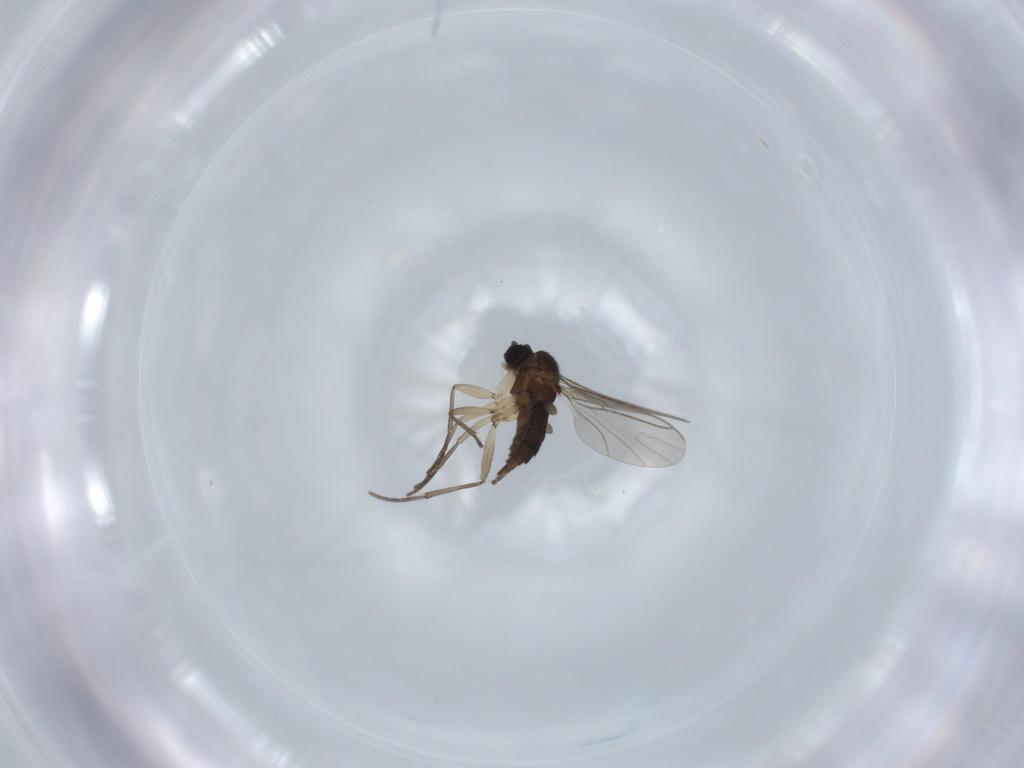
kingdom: Animalia
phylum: Arthropoda
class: Insecta
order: Diptera
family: Sciaridae
